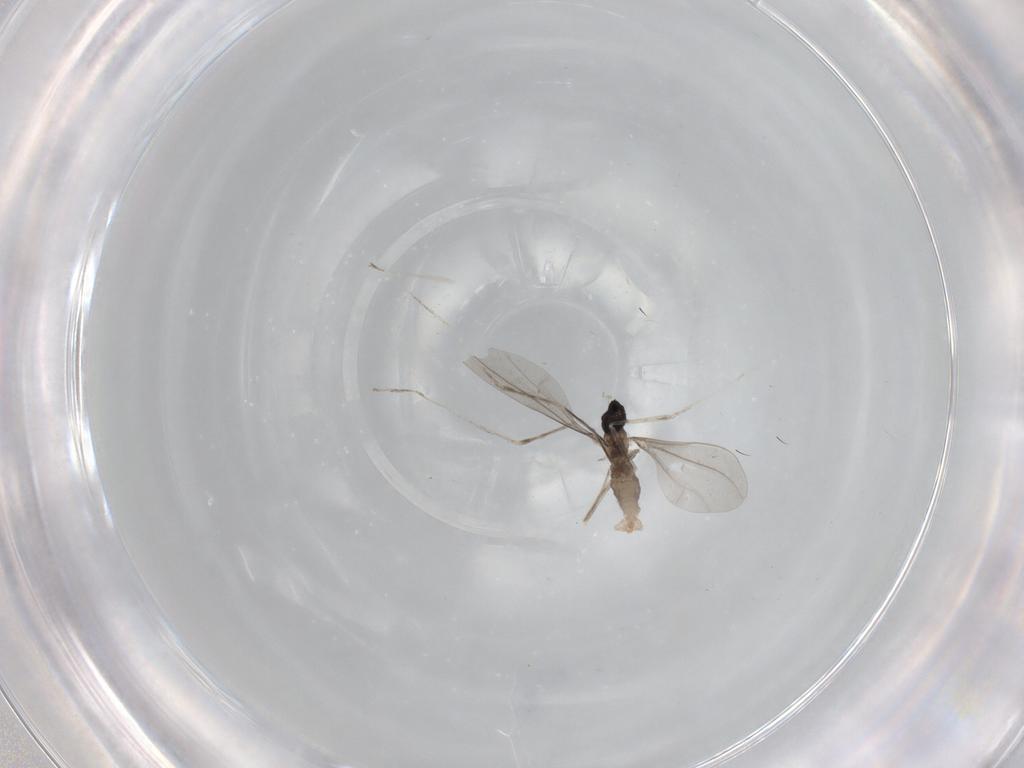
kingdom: Animalia
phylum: Arthropoda
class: Insecta
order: Diptera
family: Cecidomyiidae
